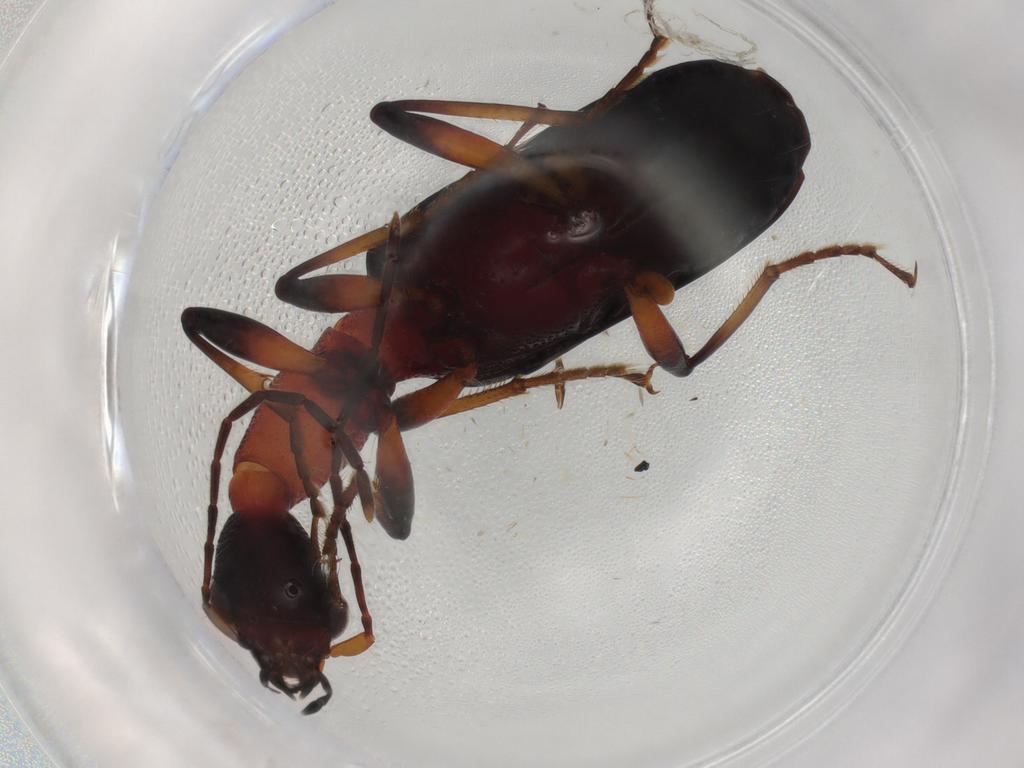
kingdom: Animalia
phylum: Arthropoda
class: Insecta
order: Coleoptera
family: Carabidae
